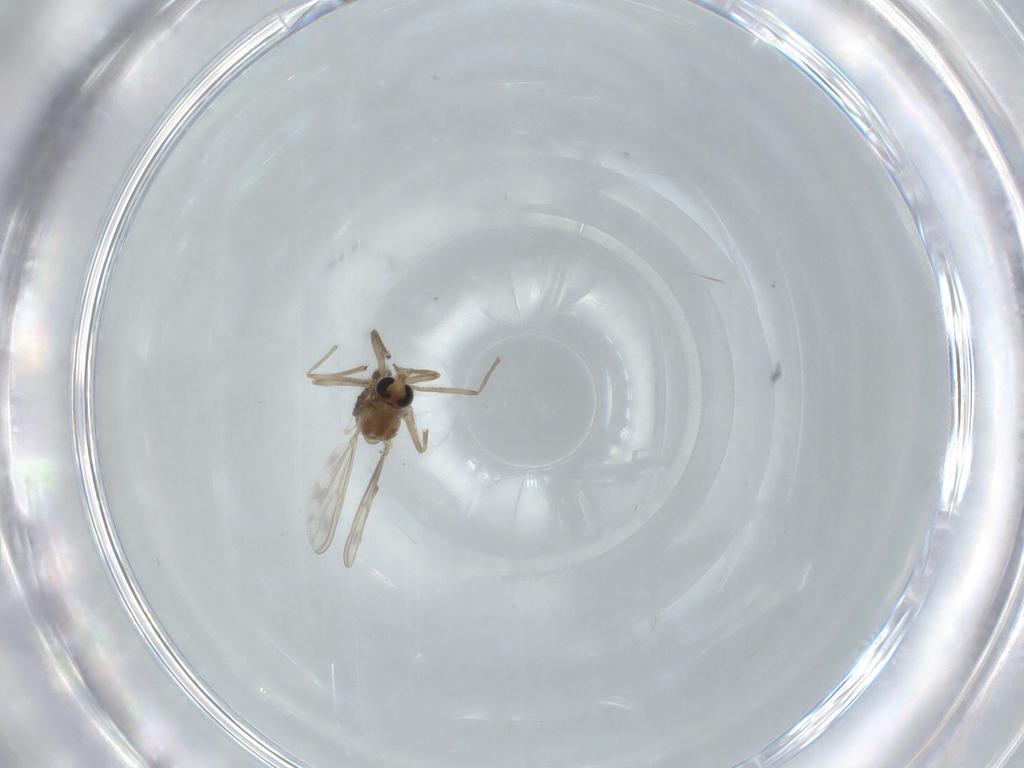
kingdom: Animalia
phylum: Arthropoda
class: Insecta
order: Diptera
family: Chironomidae
